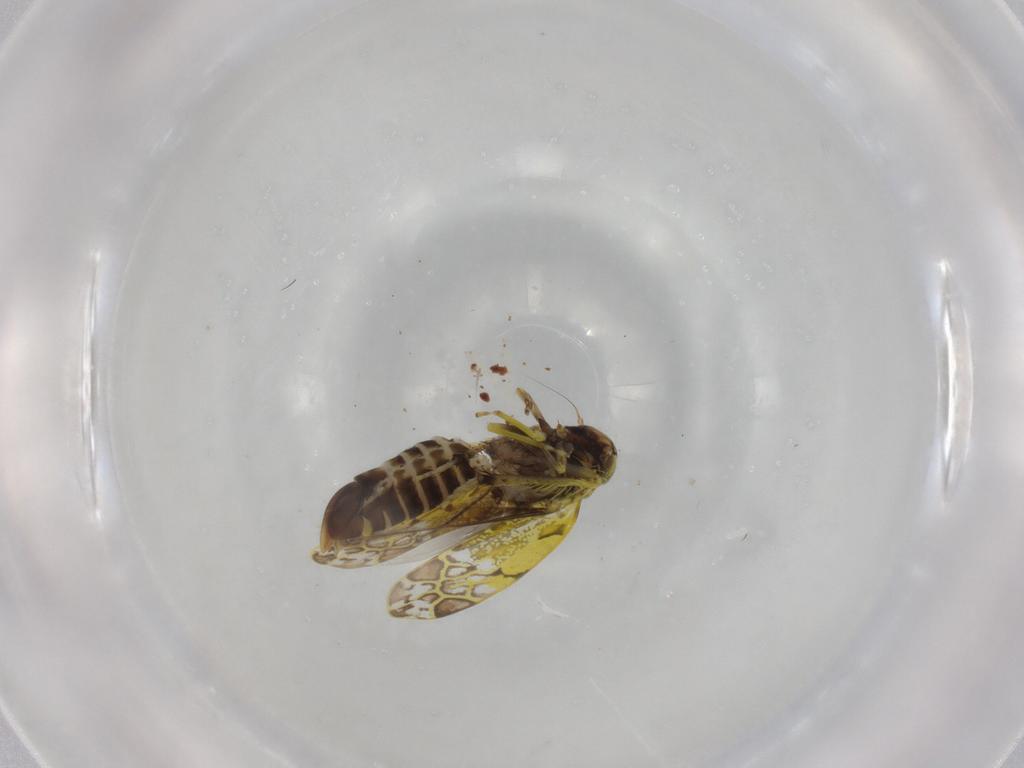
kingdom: Animalia
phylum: Arthropoda
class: Insecta
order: Hemiptera
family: Cicadellidae
